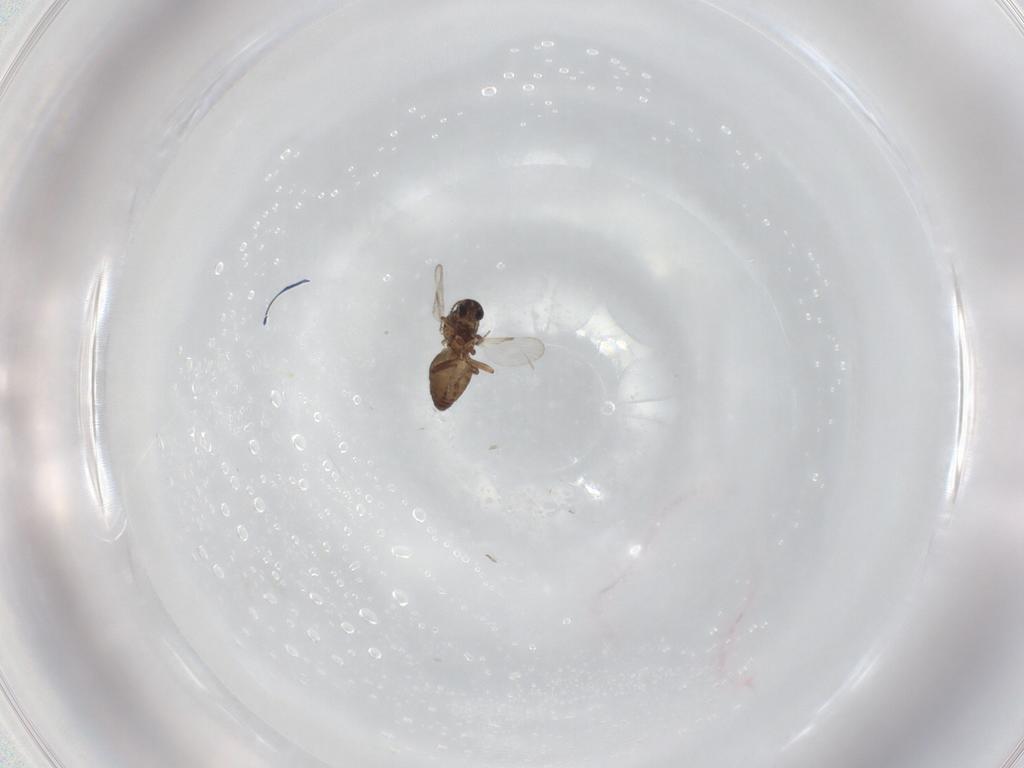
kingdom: Animalia
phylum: Arthropoda
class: Insecta
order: Diptera
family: Ceratopogonidae
